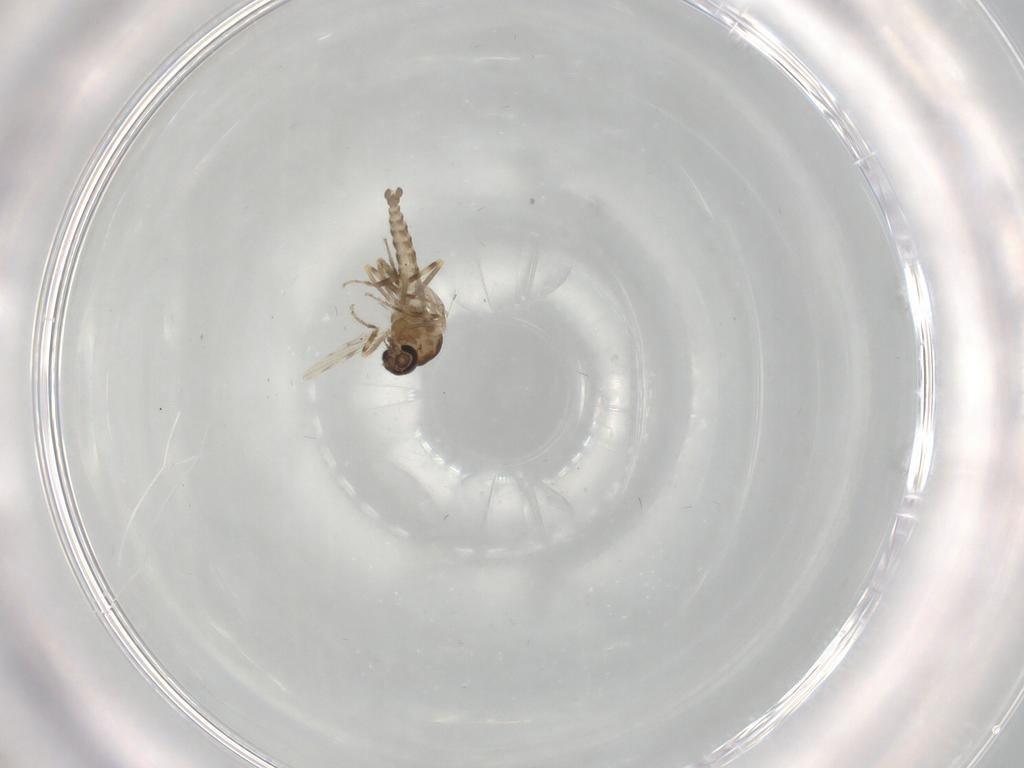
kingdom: Animalia
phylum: Arthropoda
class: Insecta
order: Diptera
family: Ceratopogonidae
